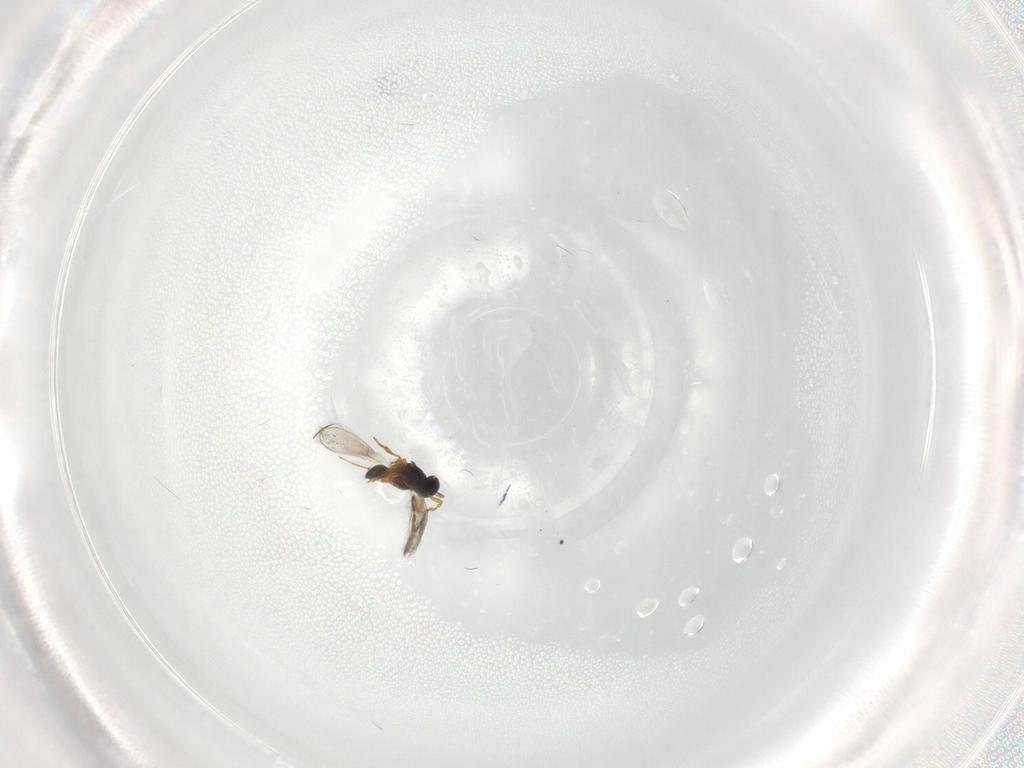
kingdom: Animalia
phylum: Arthropoda
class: Insecta
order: Hymenoptera
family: Platygastridae
